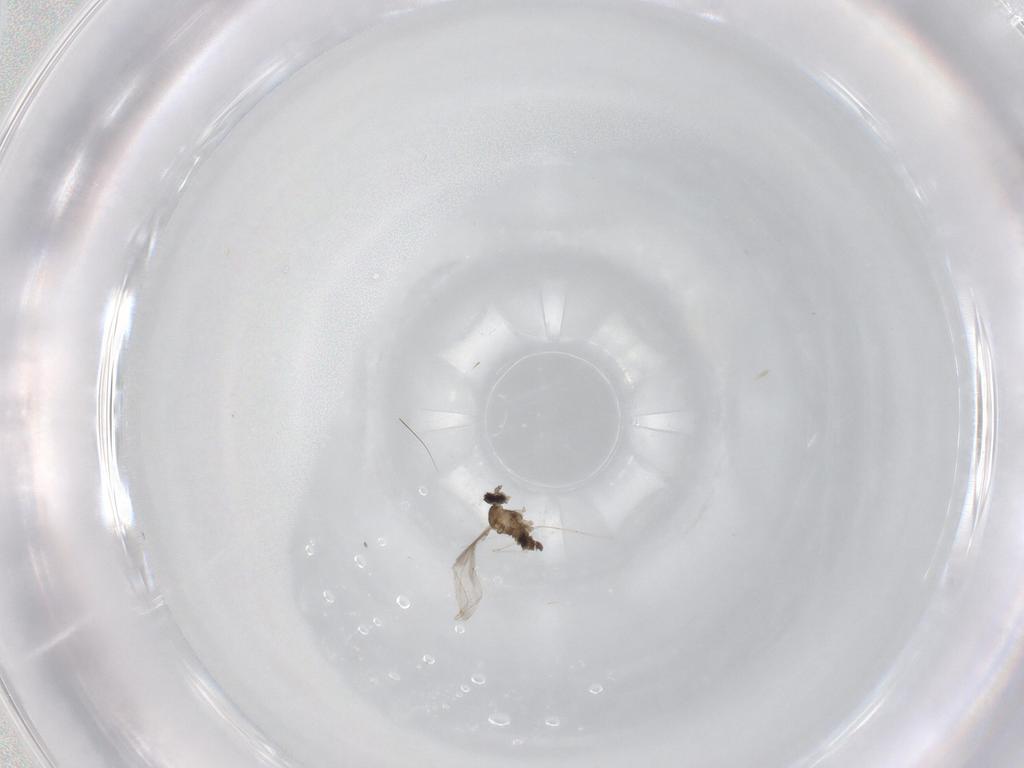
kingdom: Animalia
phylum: Arthropoda
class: Insecta
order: Diptera
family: Cecidomyiidae
